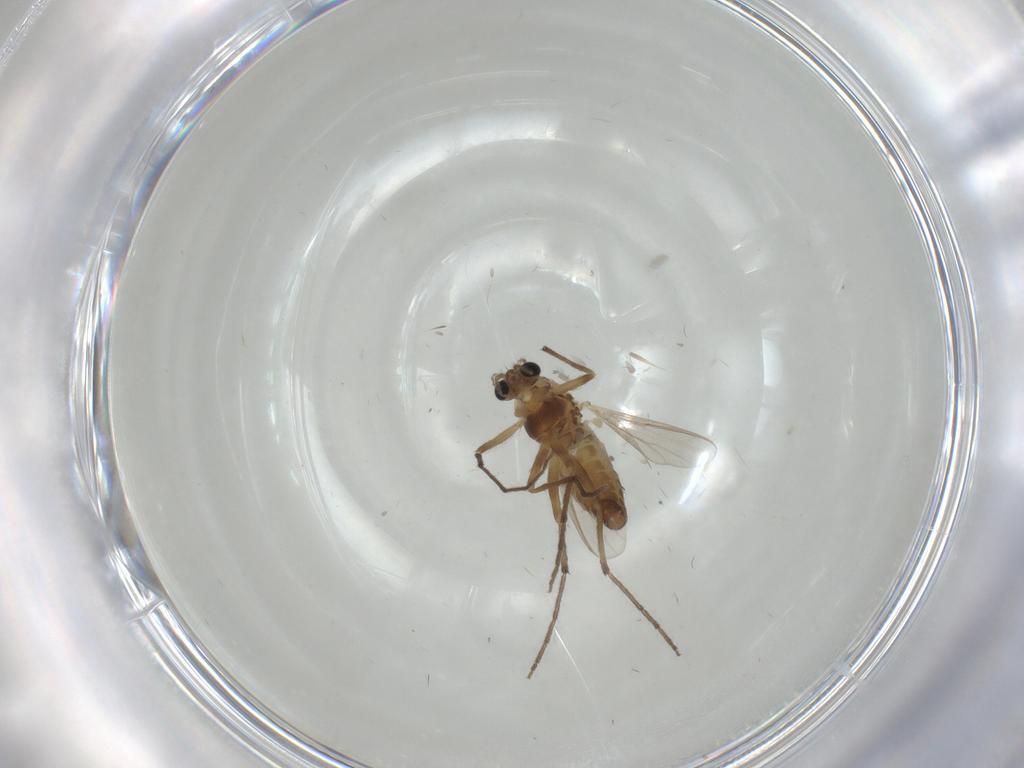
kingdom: Animalia
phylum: Arthropoda
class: Insecta
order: Diptera
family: Chironomidae
